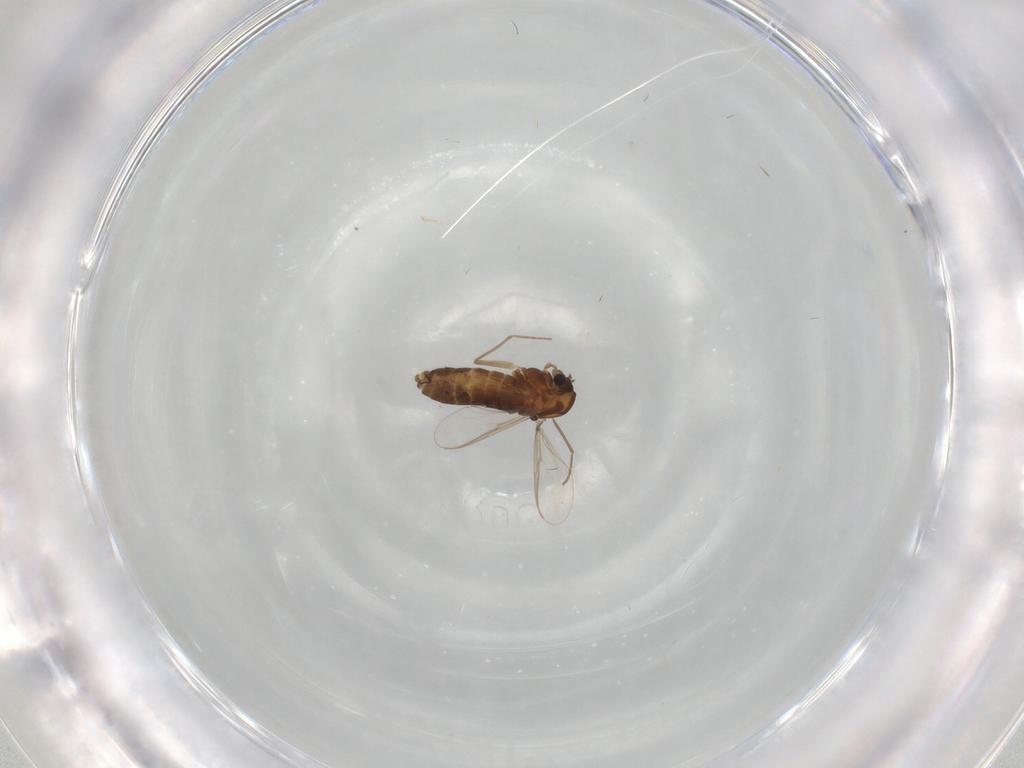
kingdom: Animalia
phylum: Arthropoda
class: Insecta
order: Diptera
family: Chironomidae
